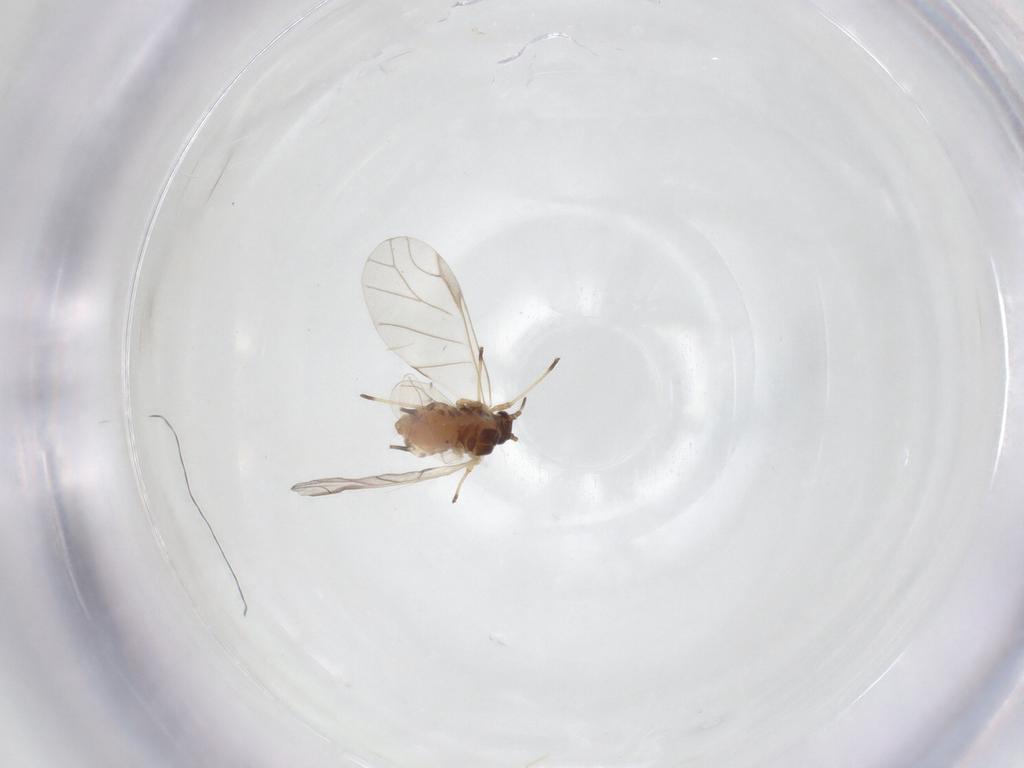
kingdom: Animalia
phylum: Arthropoda
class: Insecta
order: Hemiptera
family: Aphididae
